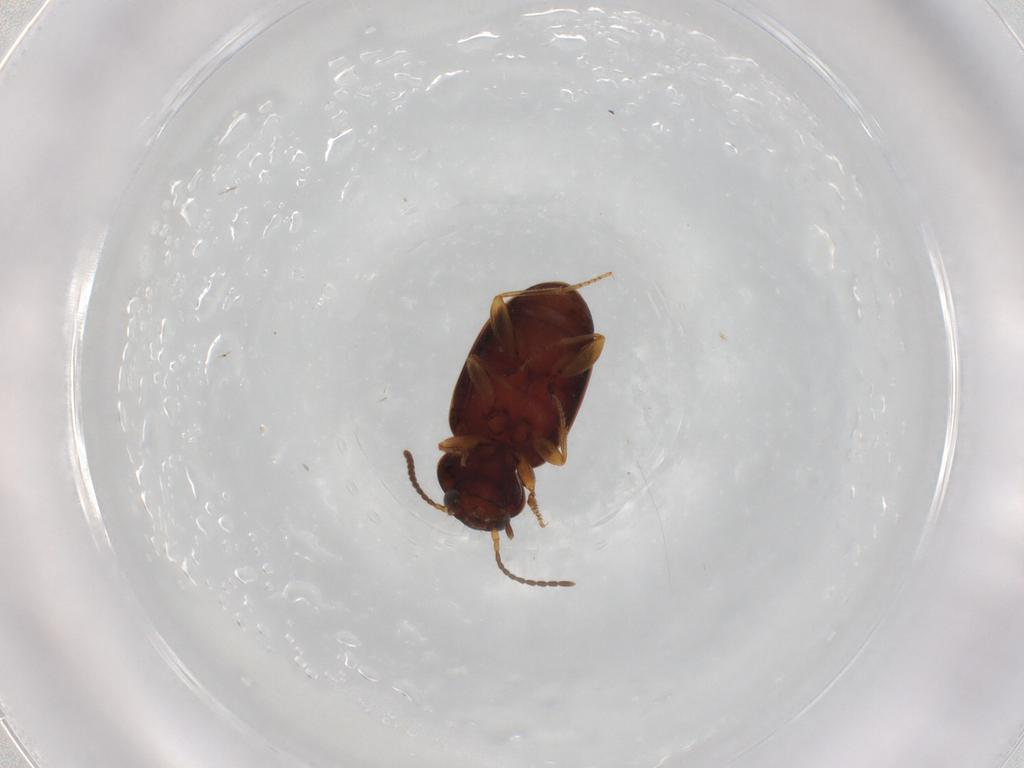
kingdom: Animalia
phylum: Arthropoda
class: Insecta
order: Coleoptera
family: Carabidae
